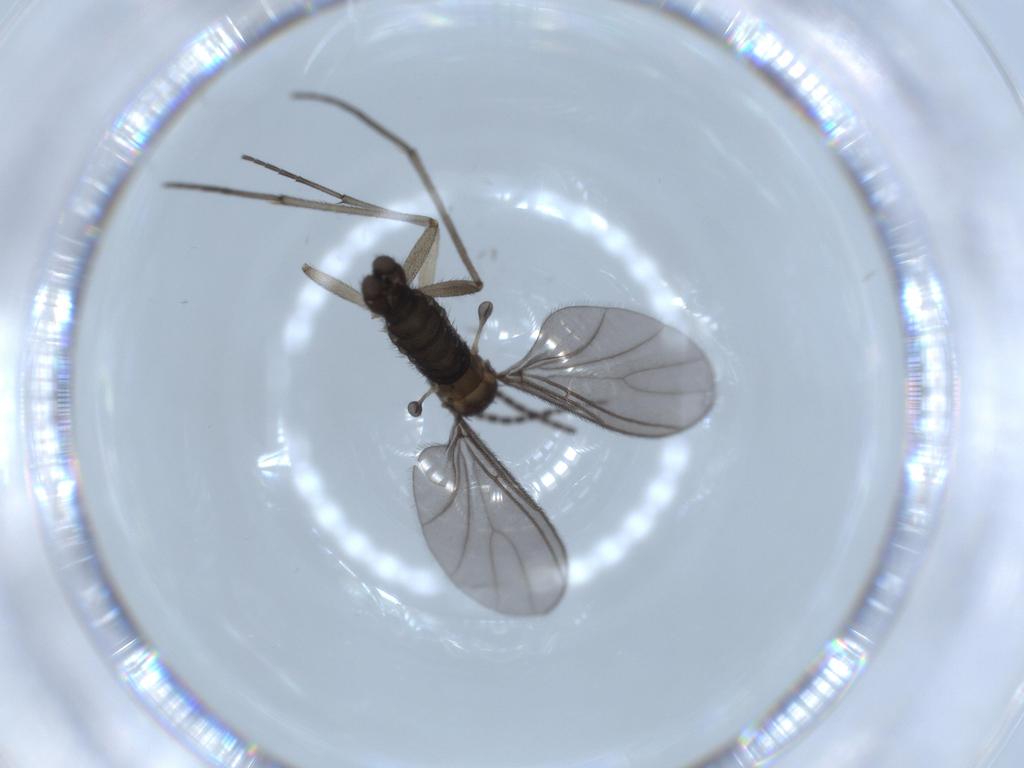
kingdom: Animalia
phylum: Arthropoda
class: Insecta
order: Diptera
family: Sciaridae
